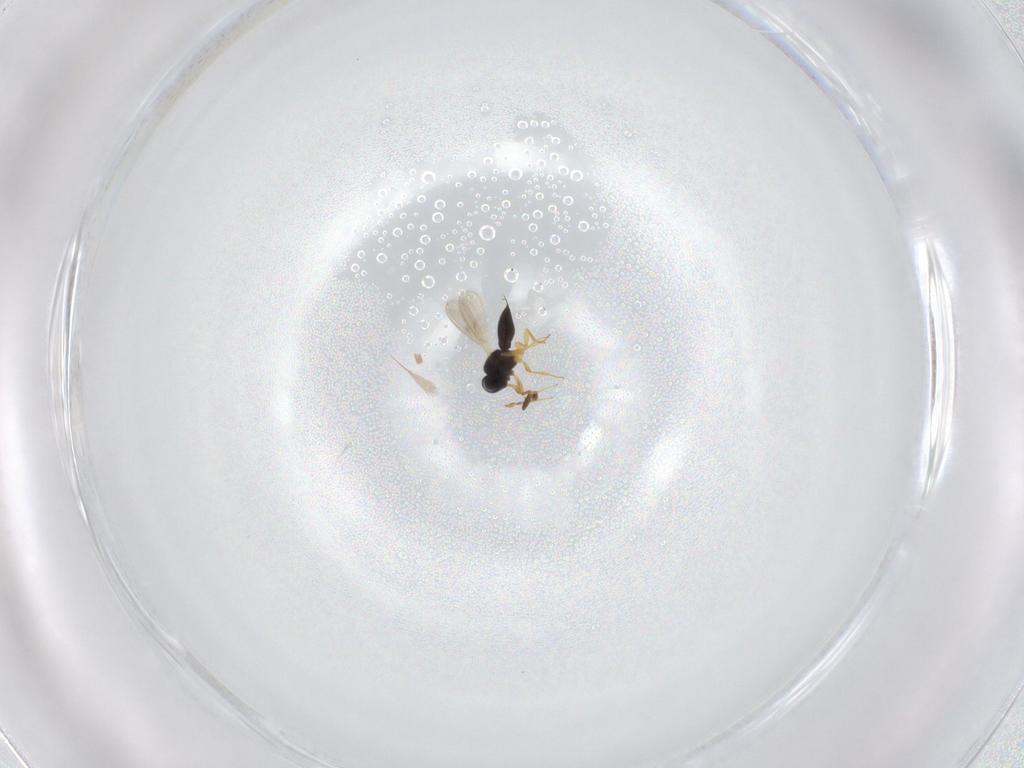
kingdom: Animalia
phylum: Arthropoda
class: Insecta
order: Hymenoptera
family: Scelionidae
